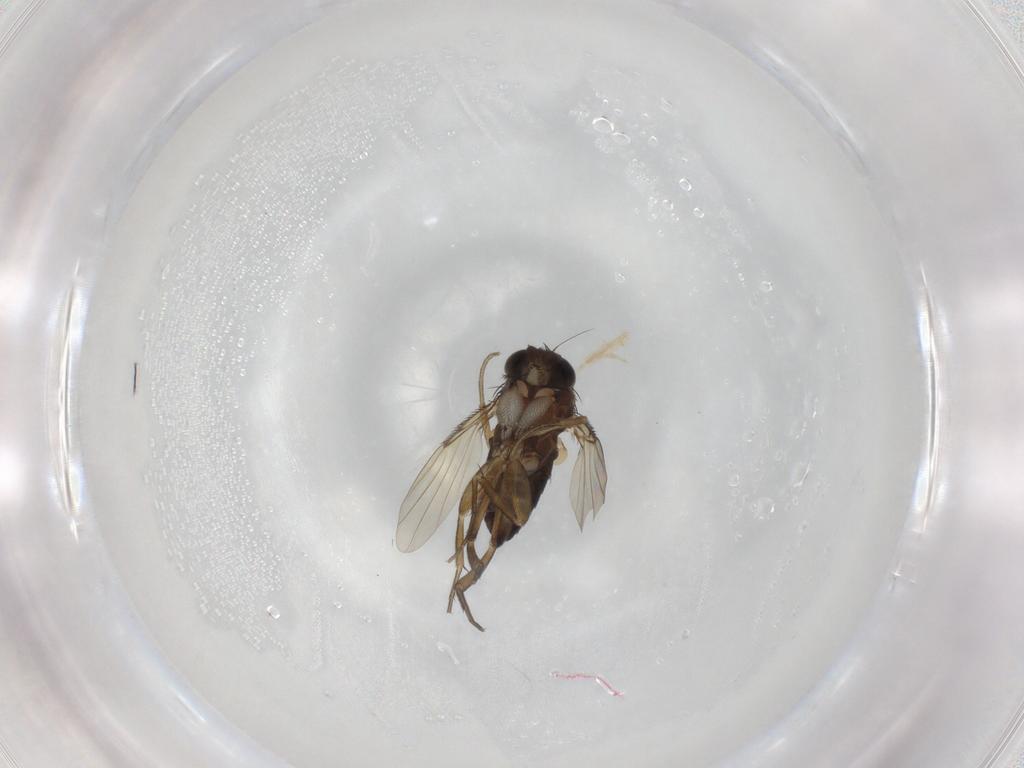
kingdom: Animalia
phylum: Arthropoda
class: Insecta
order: Diptera
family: Phoridae
